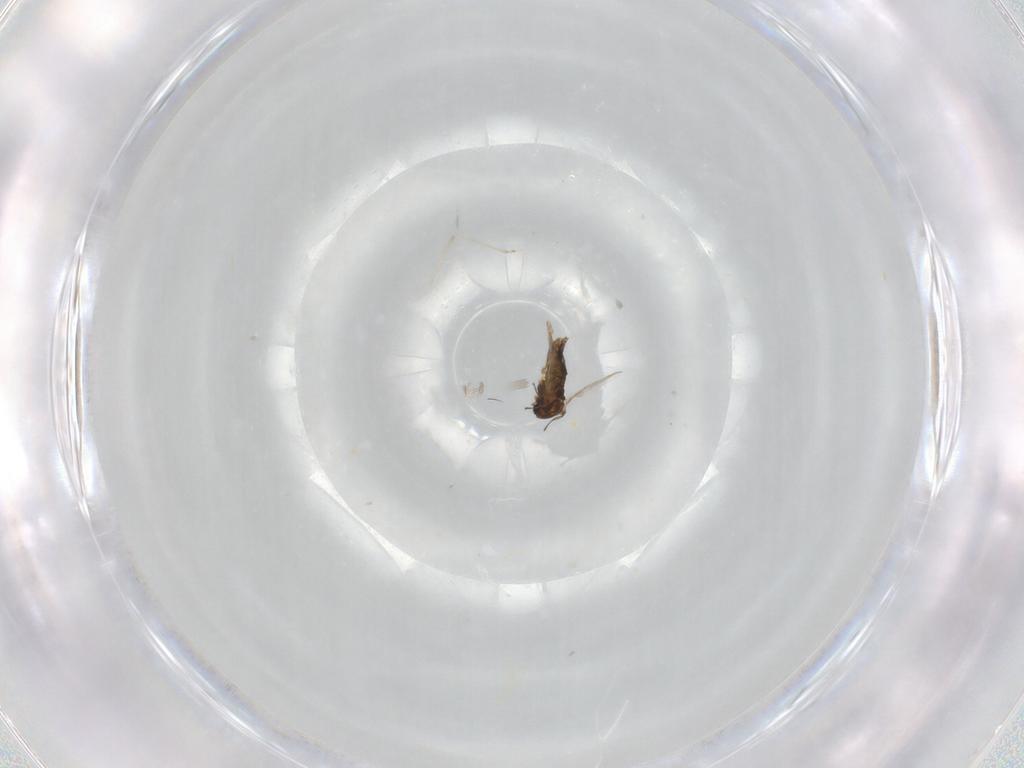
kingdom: Animalia
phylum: Arthropoda
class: Insecta
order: Diptera
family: Chironomidae
